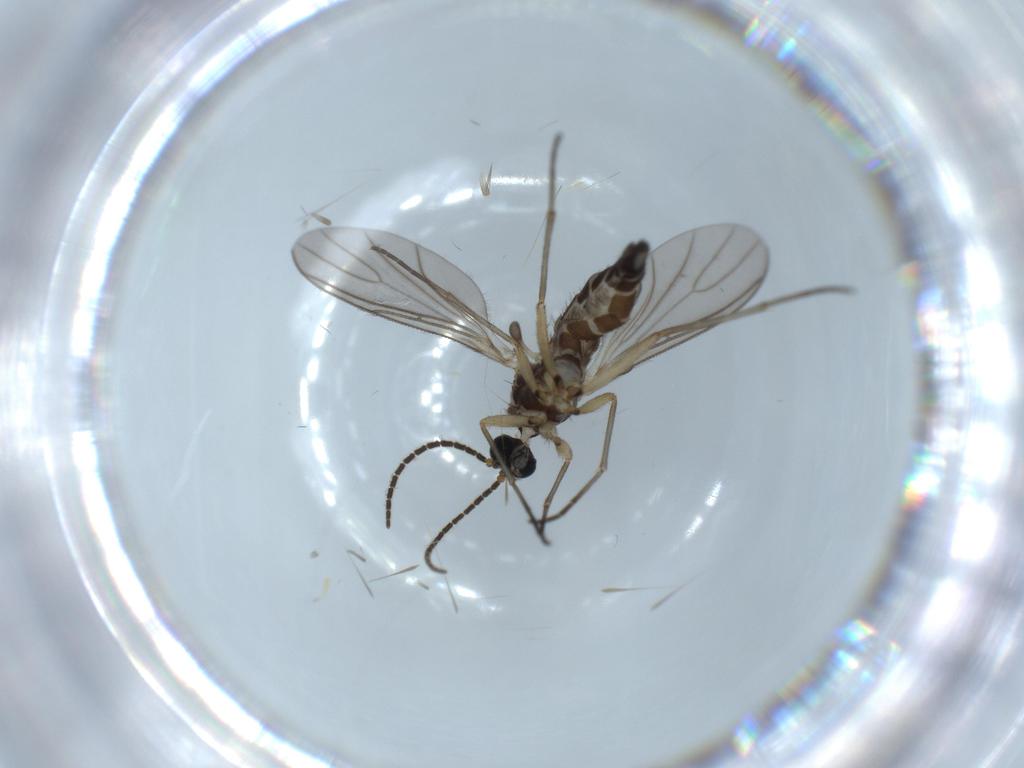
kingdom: Animalia
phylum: Arthropoda
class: Insecta
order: Diptera
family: Sciaridae
